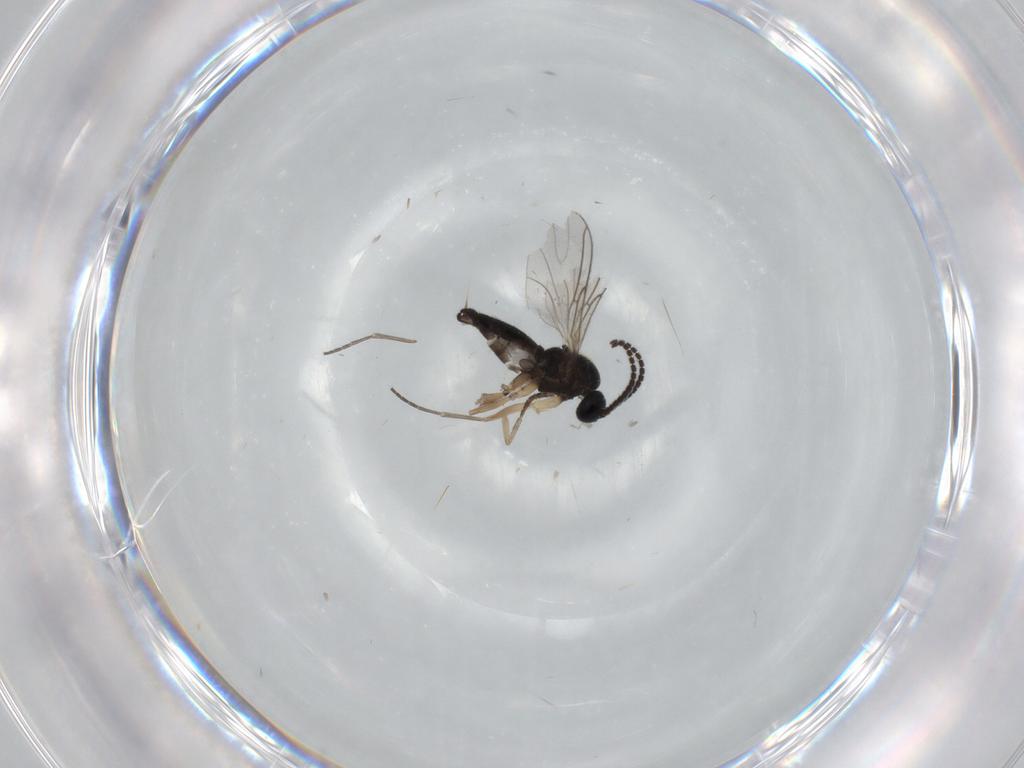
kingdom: Animalia
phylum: Arthropoda
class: Insecta
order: Diptera
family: Sciaridae
